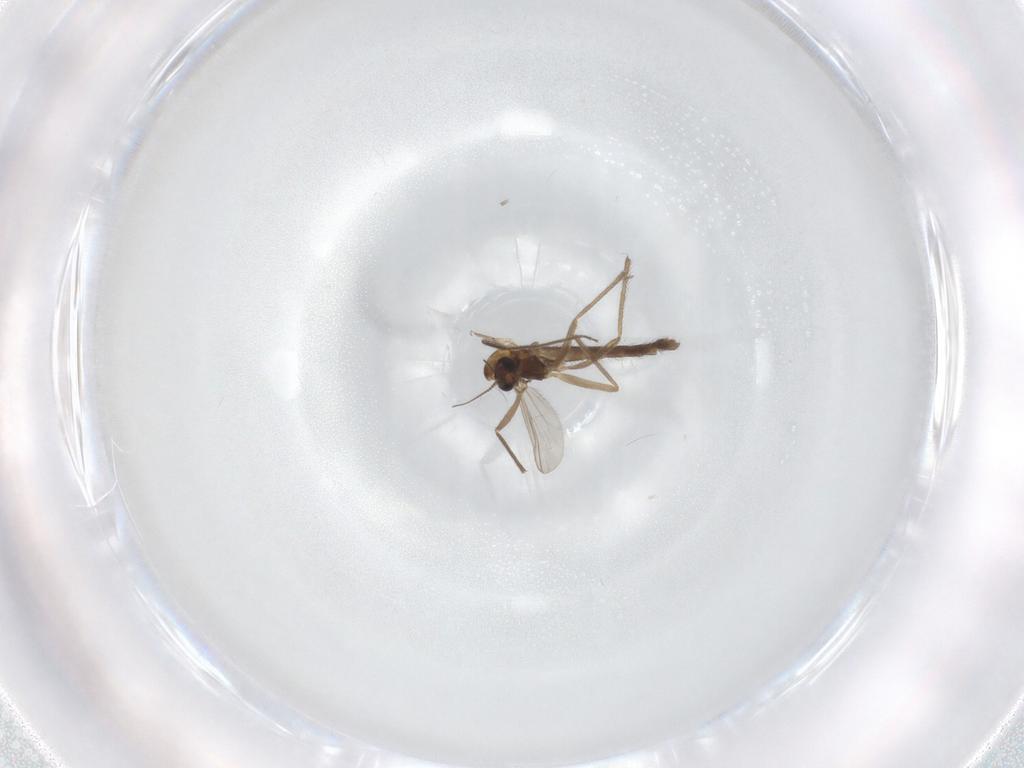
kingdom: Animalia
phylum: Arthropoda
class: Insecta
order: Diptera
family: Chironomidae
